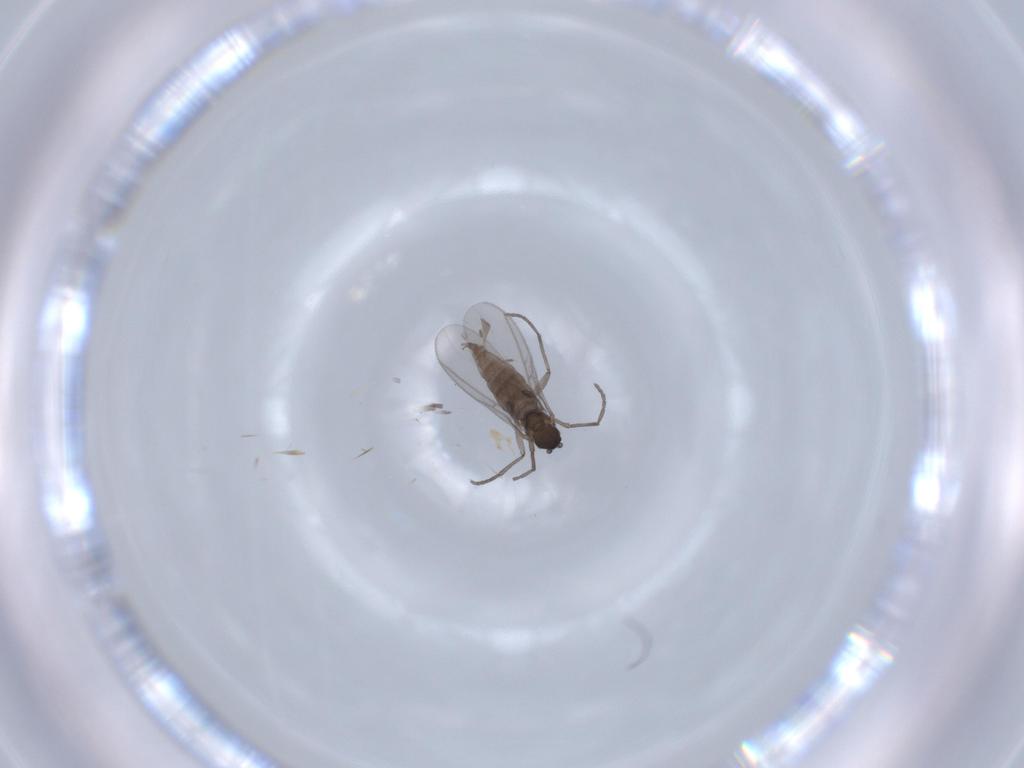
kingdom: Animalia
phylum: Arthropoda
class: Insecta
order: Diptera
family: Sciaridae
